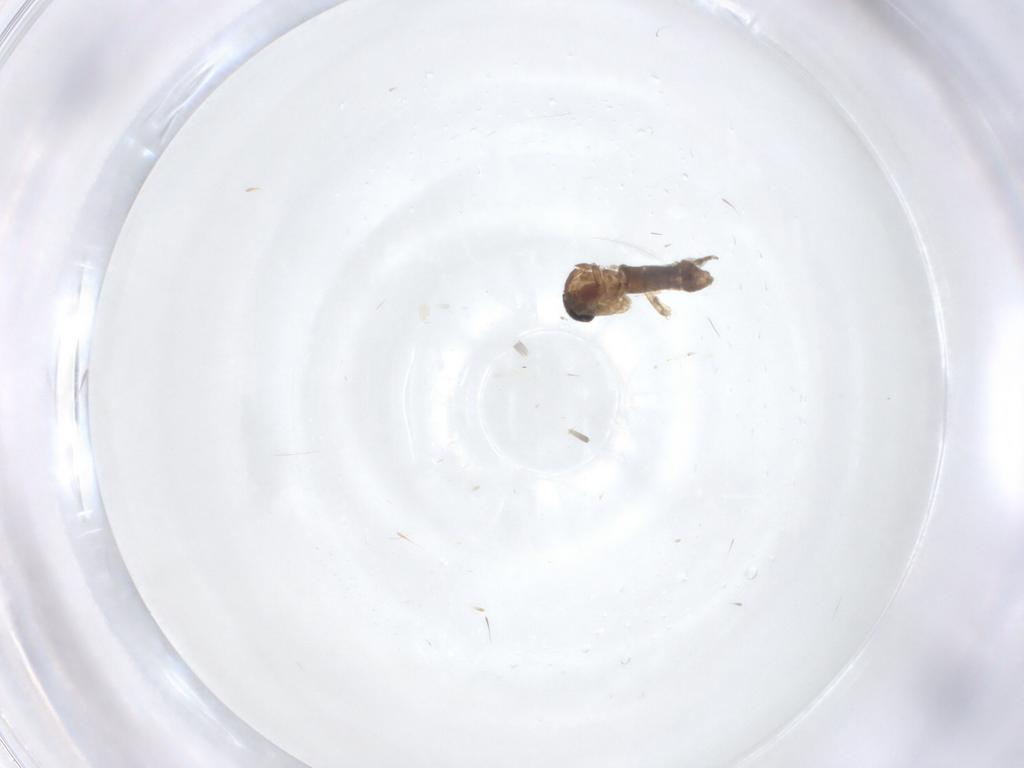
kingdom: Animalia
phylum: Arthropoda
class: Insecta
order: Diptera
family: Cecidomyiidae
